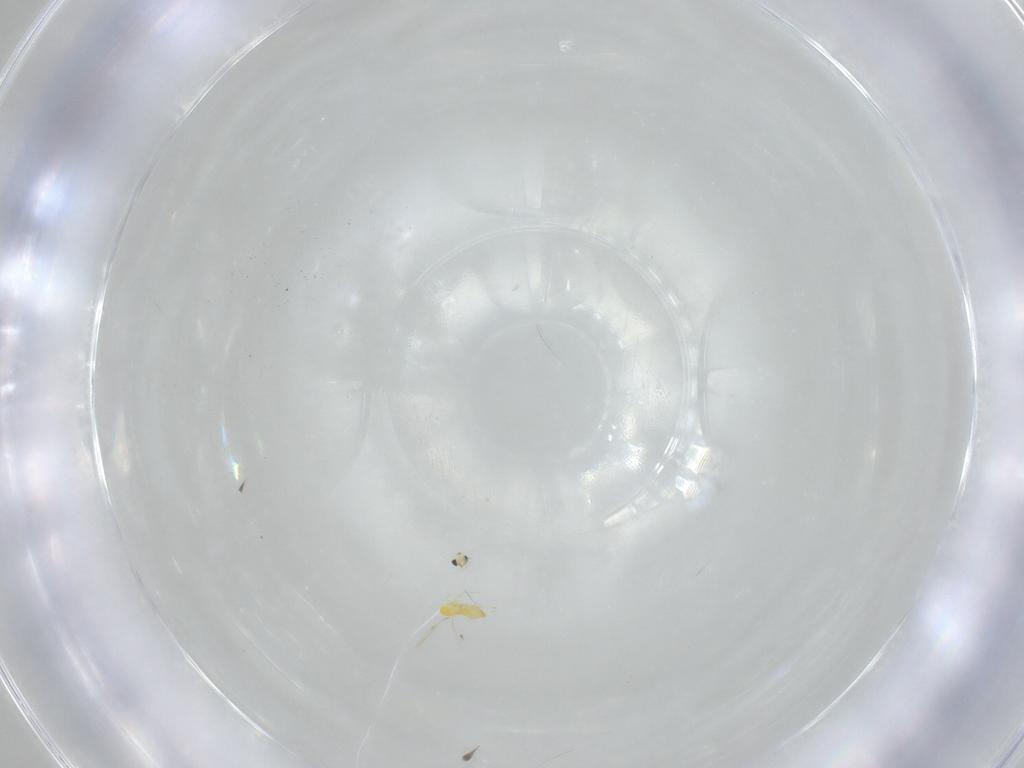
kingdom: Animalia
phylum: Arthropoda
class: Insecta
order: Hymenoptera
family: Trichogrammatidae
